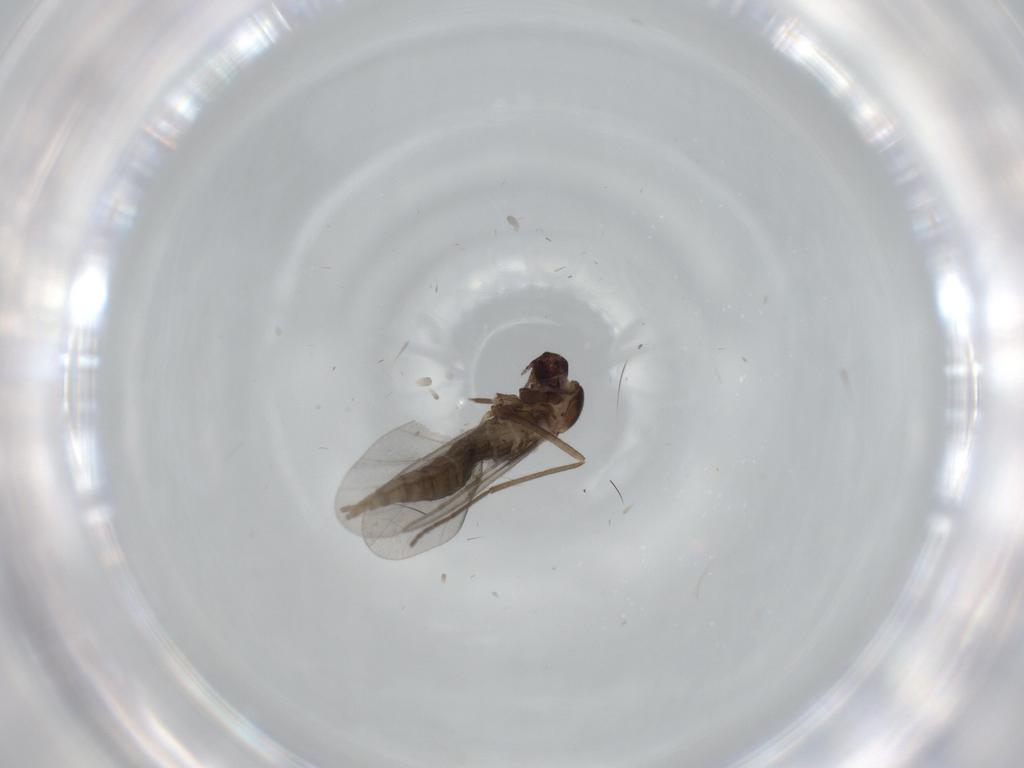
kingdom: Animalia
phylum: Arthropoda
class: Insecta
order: Diptera
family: Cecidomyiidae
